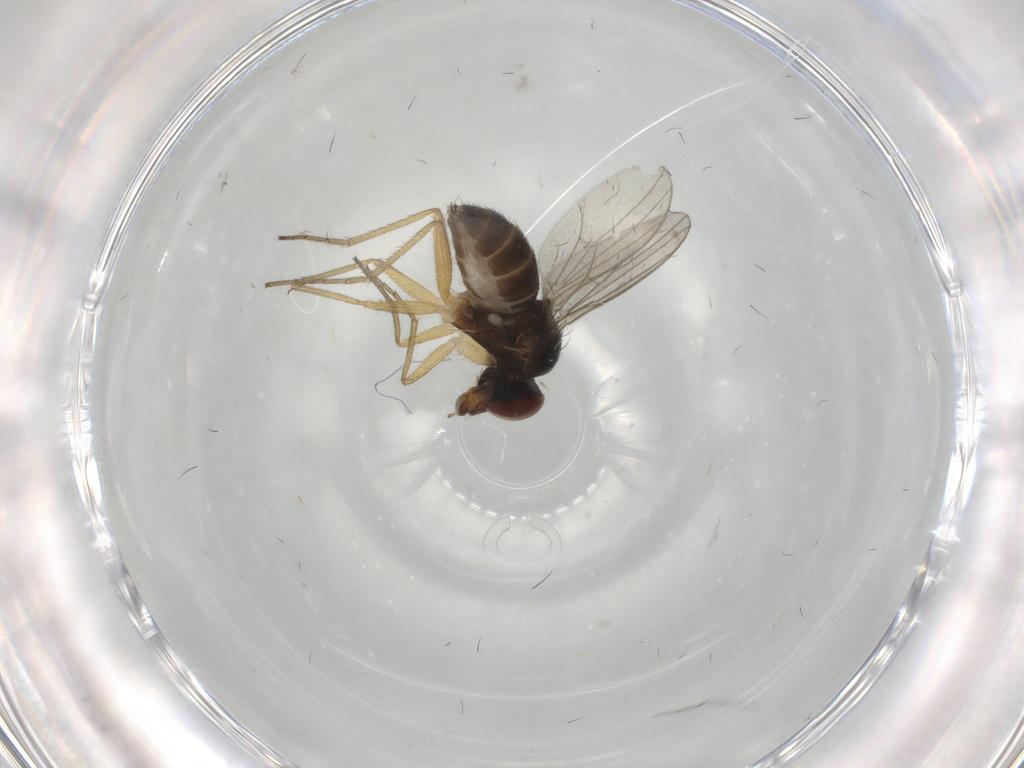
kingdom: Animalia
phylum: Arthropoda
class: Insecta
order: Diptera
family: Dolichopodidae
